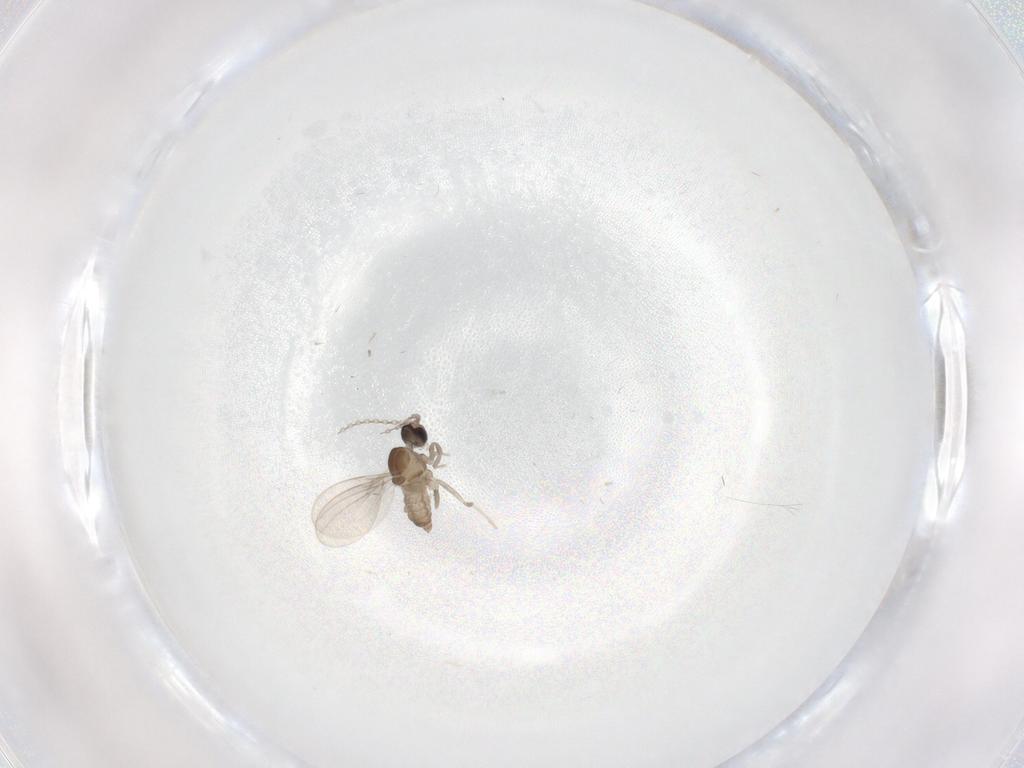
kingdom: Animalia
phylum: Arthropoda
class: Insecta
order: Diptera
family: Cecidomyiidae
